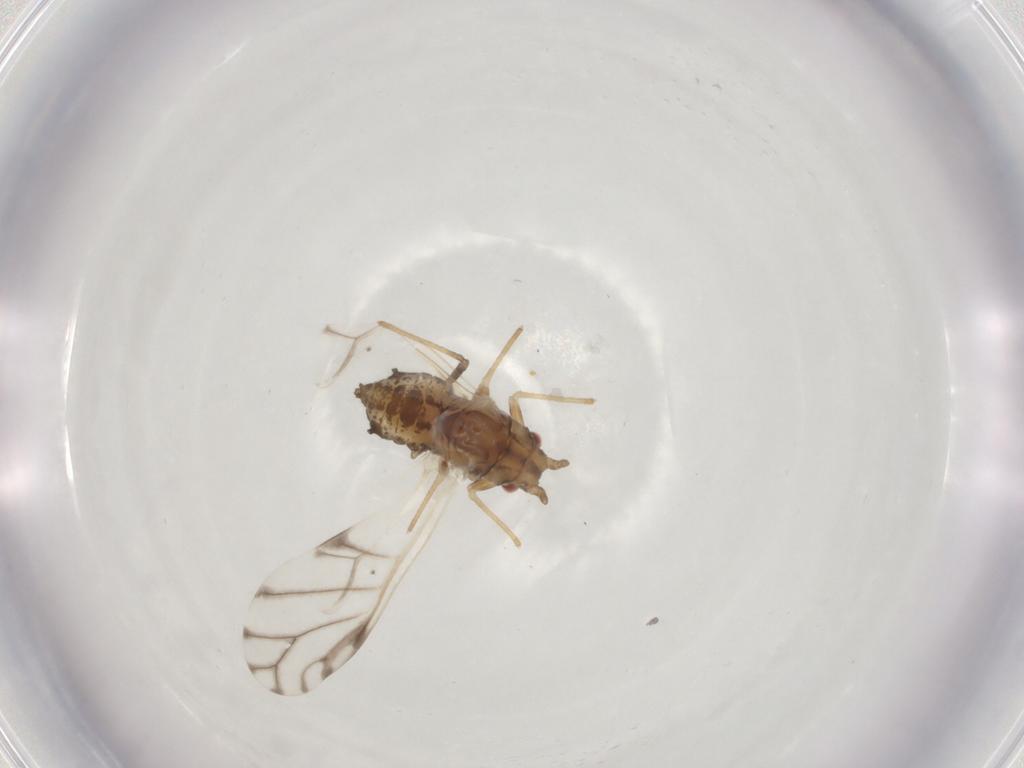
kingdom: Animalia
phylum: Arthropoda
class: Insecta
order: Hemiptera
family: Aphididae
